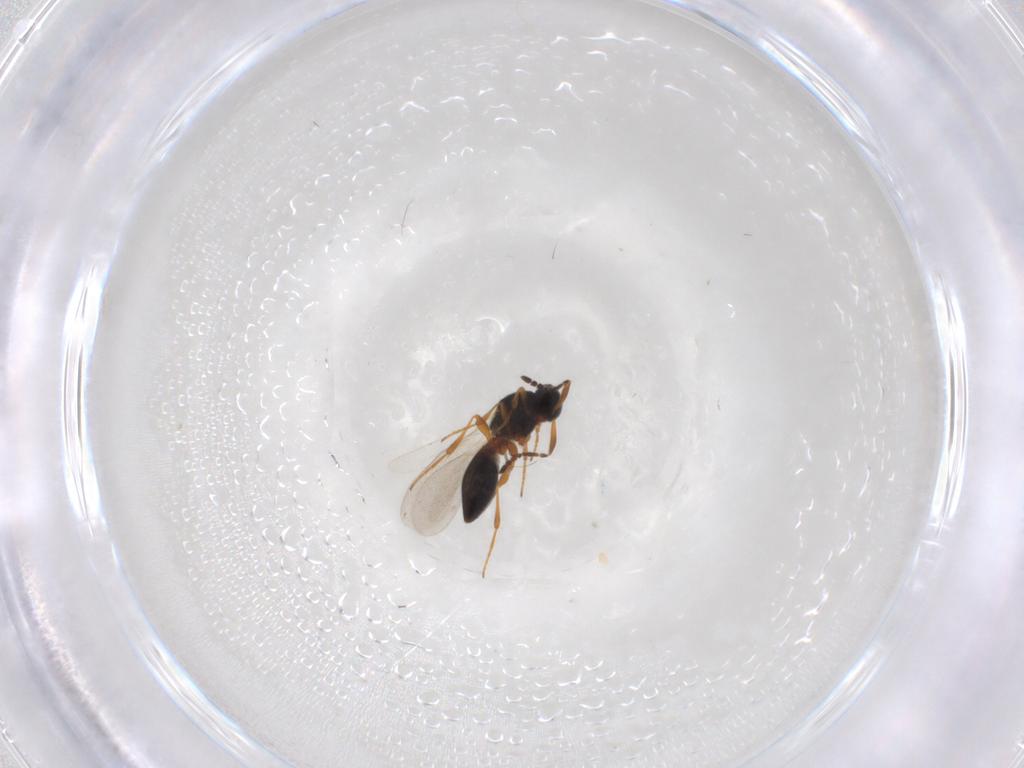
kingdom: Animalia
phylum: Arthropoda
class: Insecta
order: Hymenoptera
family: Platygastridae
